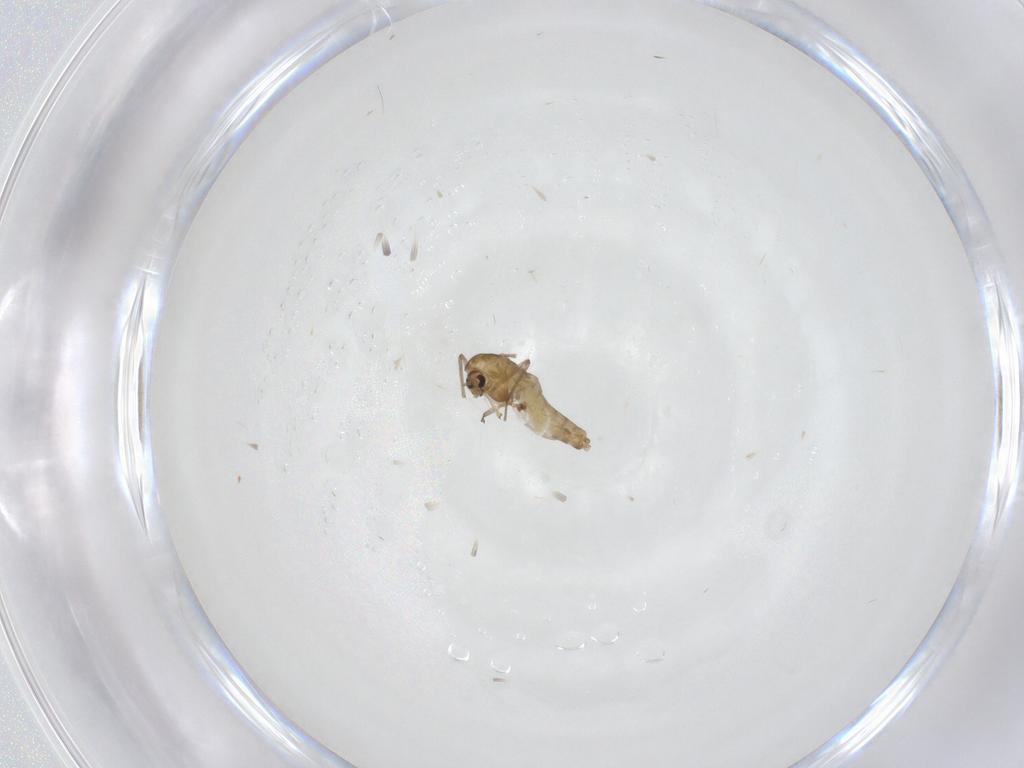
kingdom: Animalia
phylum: Arthropoda
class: Insecta
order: Diptera
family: Chironomidae
